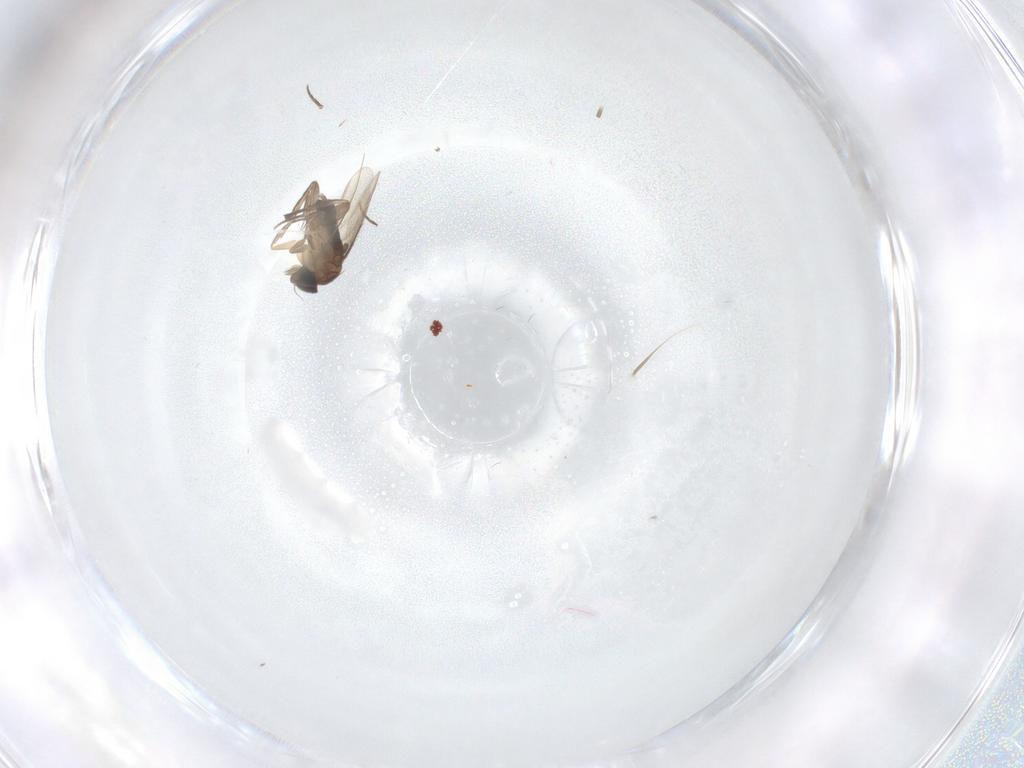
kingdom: Animalia
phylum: Arthropoda
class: Insecta
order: Diptera
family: Phoridae
